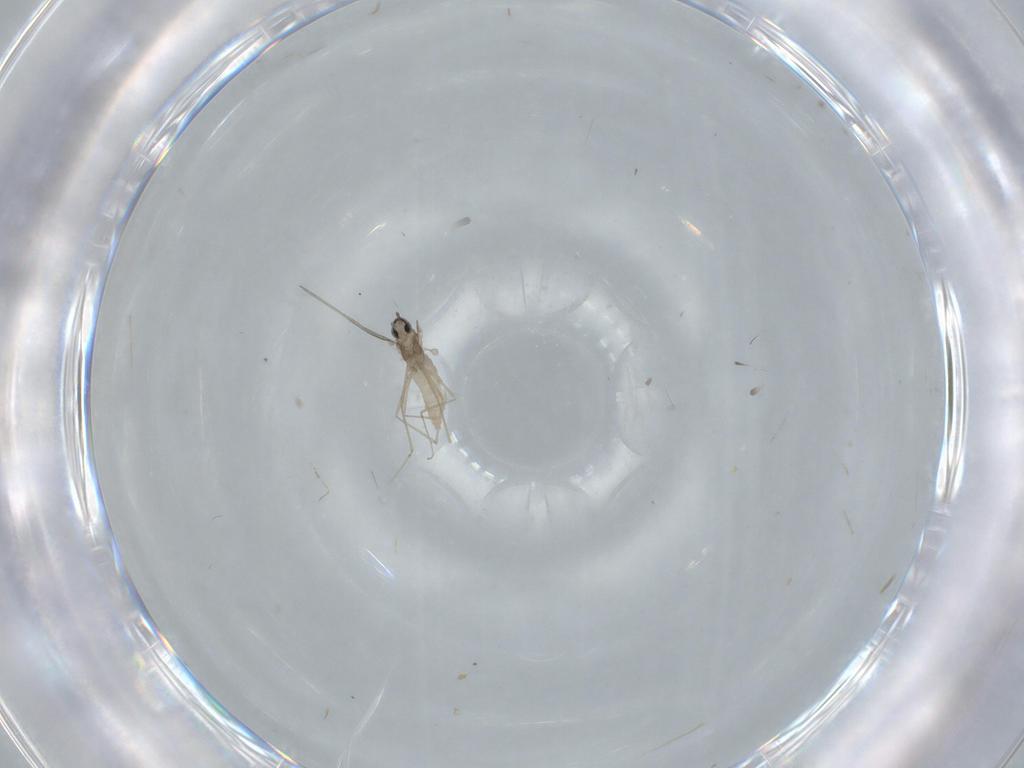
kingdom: Animalia
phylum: Arthropoda
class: Insecta
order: Diptera
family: Cecidomyiidae
